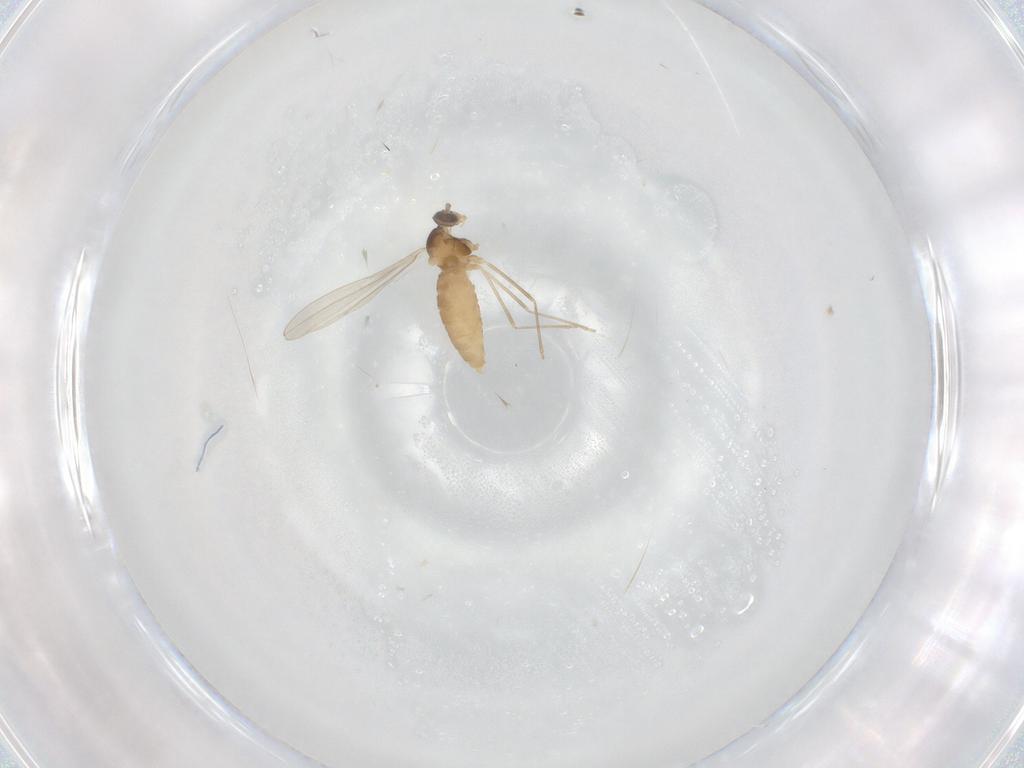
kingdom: Animalia
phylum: Arthropoda
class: Insecta
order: Diptera
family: Cecidomyiidae
